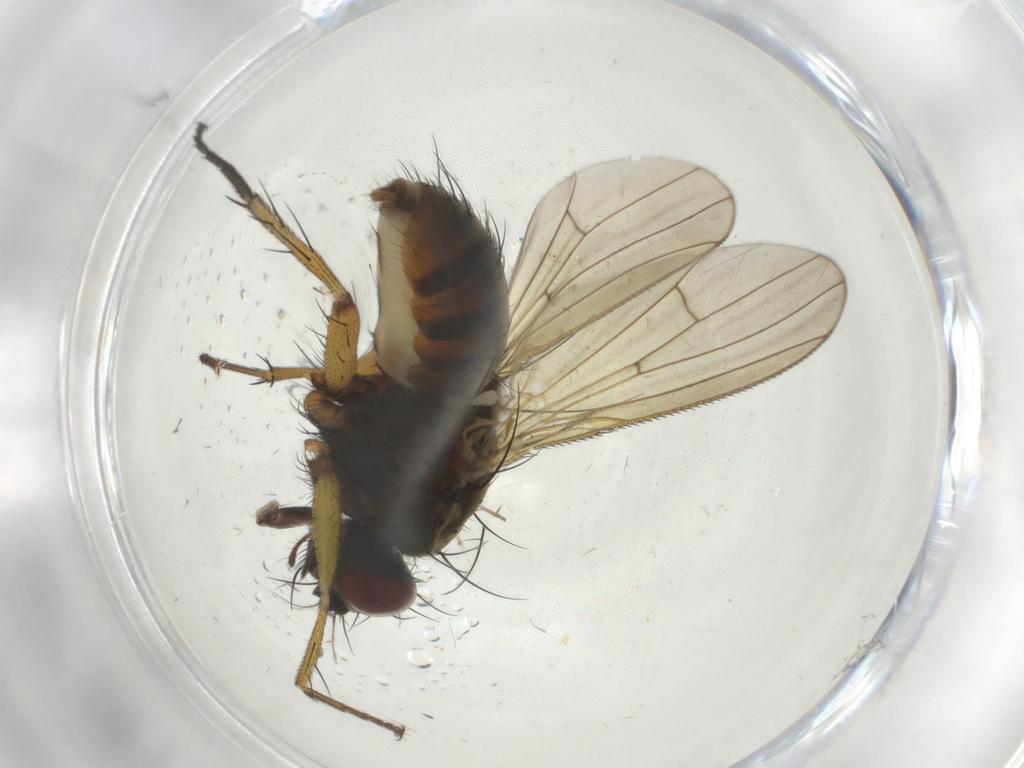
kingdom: Animalia
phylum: Arthropoda
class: Insecta
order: Diptera
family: Muscidae
